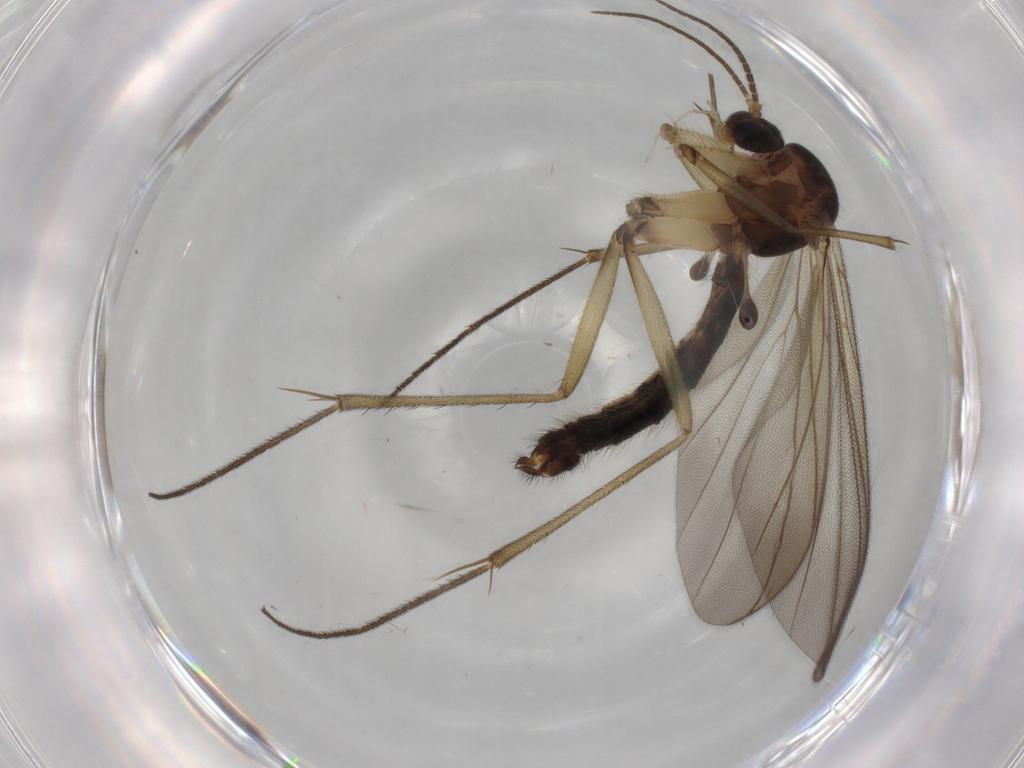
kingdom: Animalia
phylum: Arthropoda
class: Insecta
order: Diptera
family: Mycetophilidae
